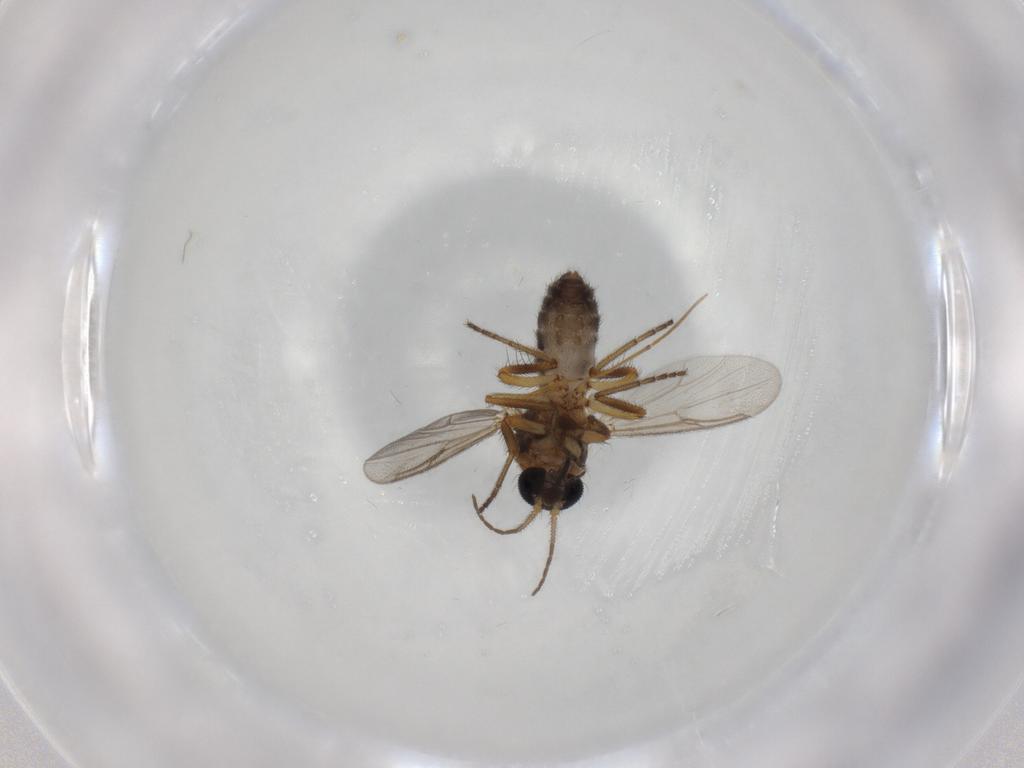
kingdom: Animalia
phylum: Arthropoda
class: Insecta
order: Diptera
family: Ceratopogonidae
